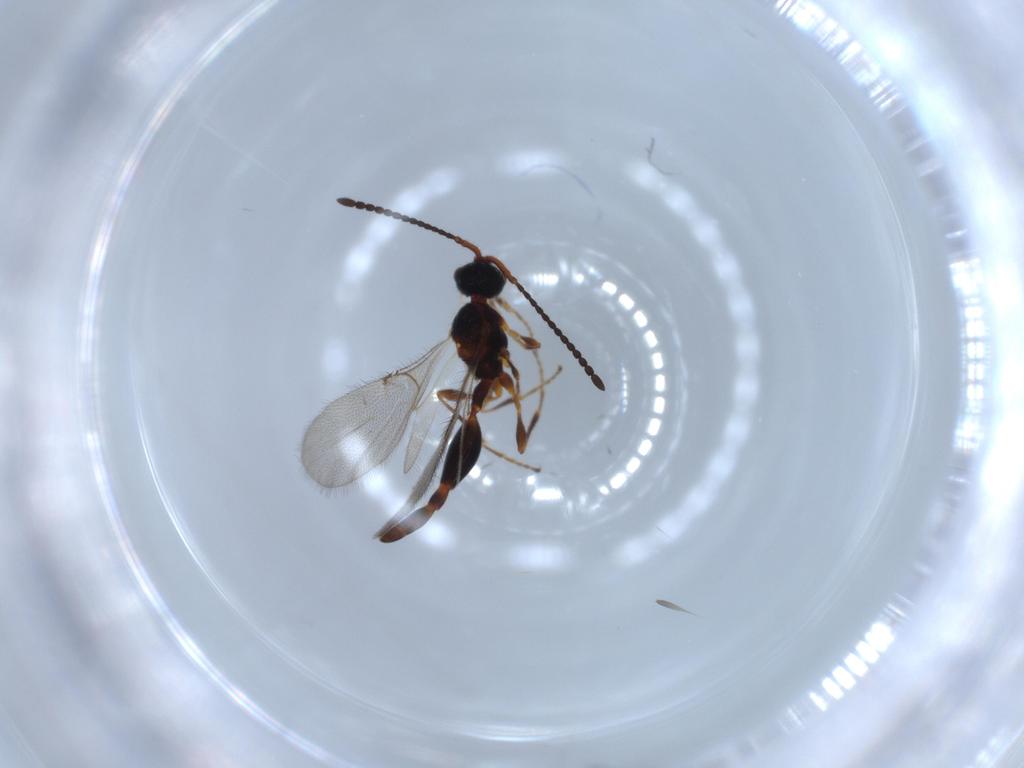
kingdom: Animalia
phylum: Arthropoda
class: Insecta
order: Hymenoptera
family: Diapriidae
